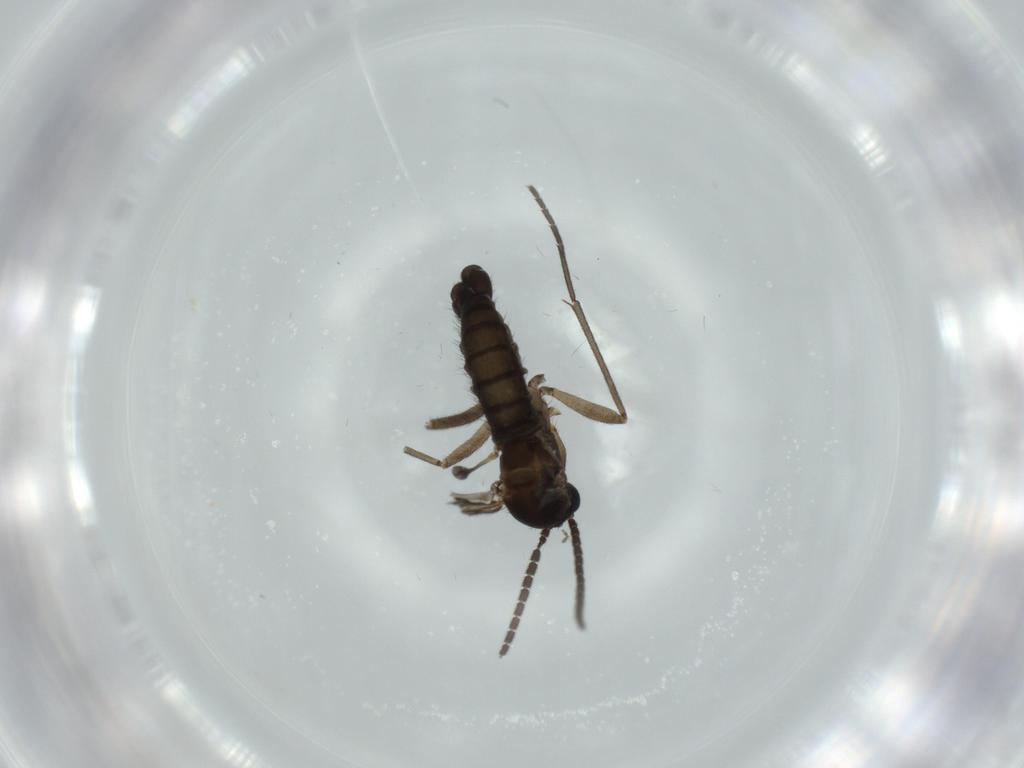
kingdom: Animalia
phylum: Arthropoda
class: Insecta
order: Diptera
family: Sciaridae
